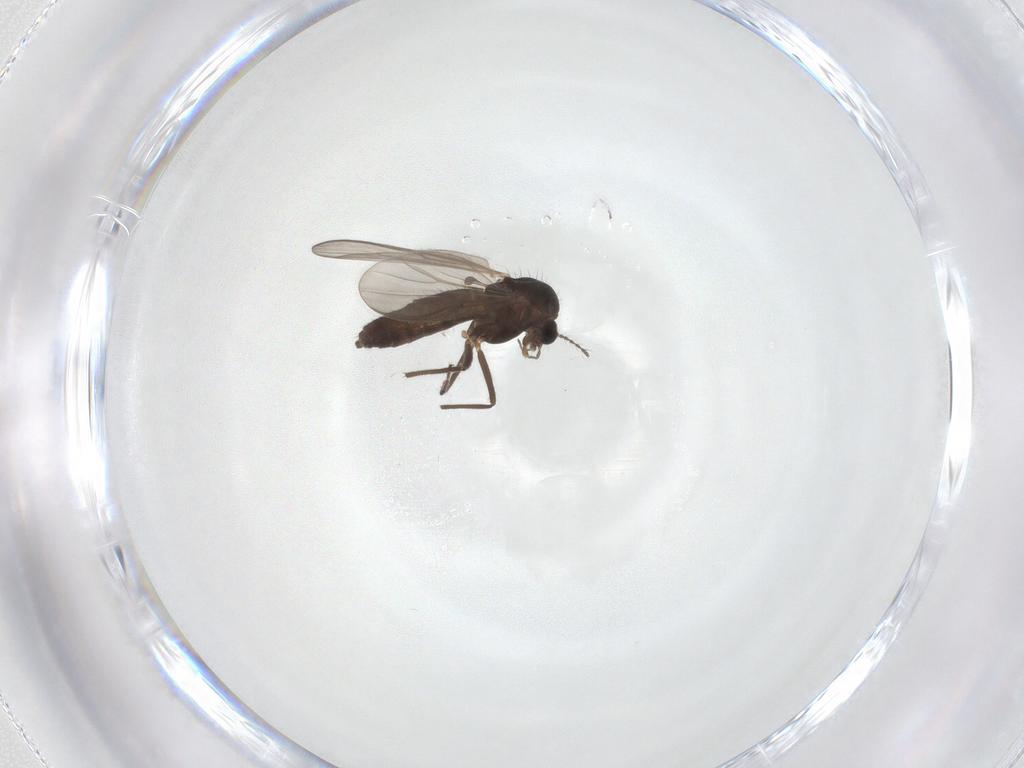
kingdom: Animalia
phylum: Arthropoda
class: Insecta
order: Diptera
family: Chironomidae
